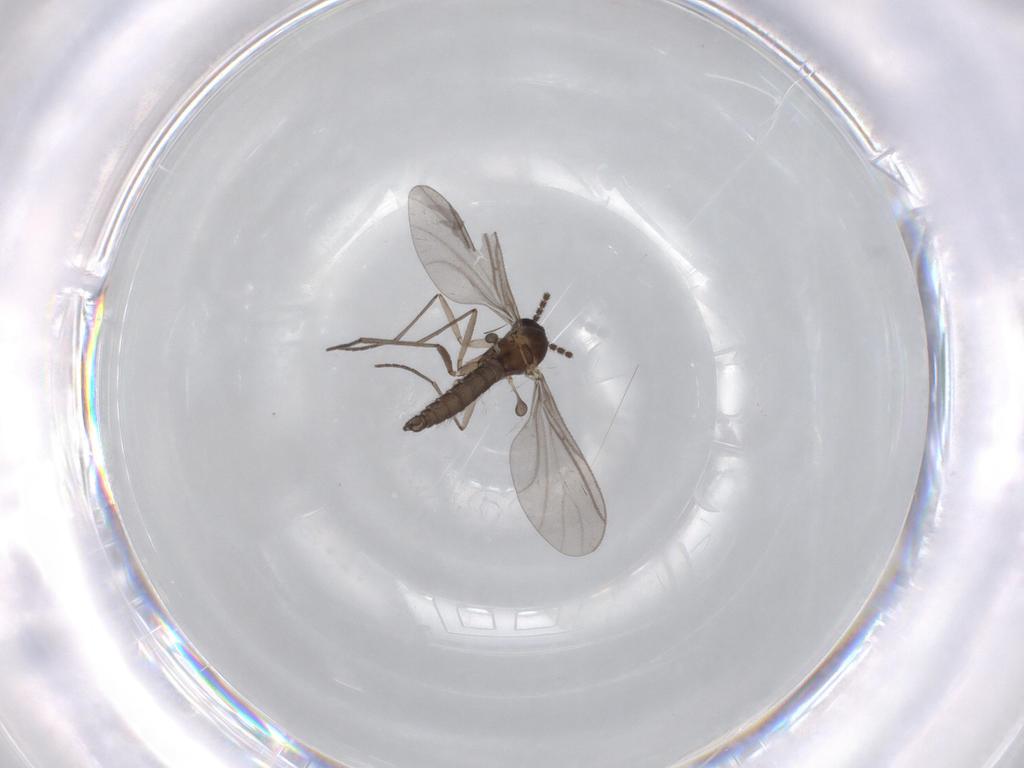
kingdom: Animalia
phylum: Arthropoda
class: Insecta
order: Diptera
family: Sciaridae
